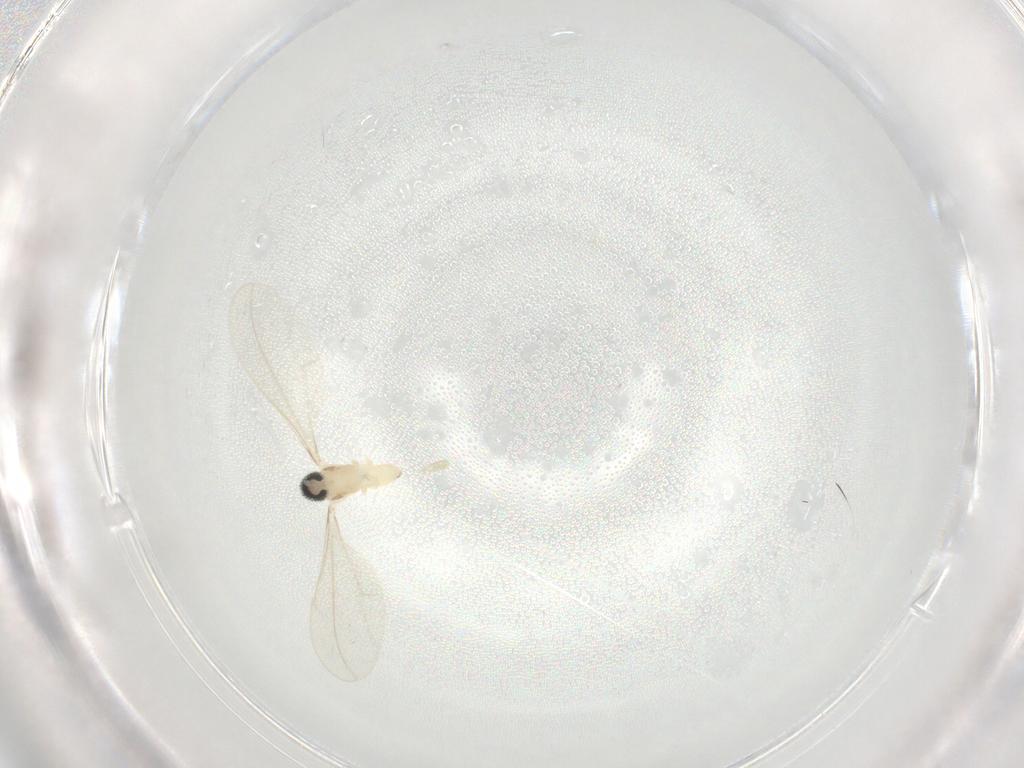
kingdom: Animalia
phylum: Arthropoda
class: Insecta
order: Diptera
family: Cecidomyiidae
